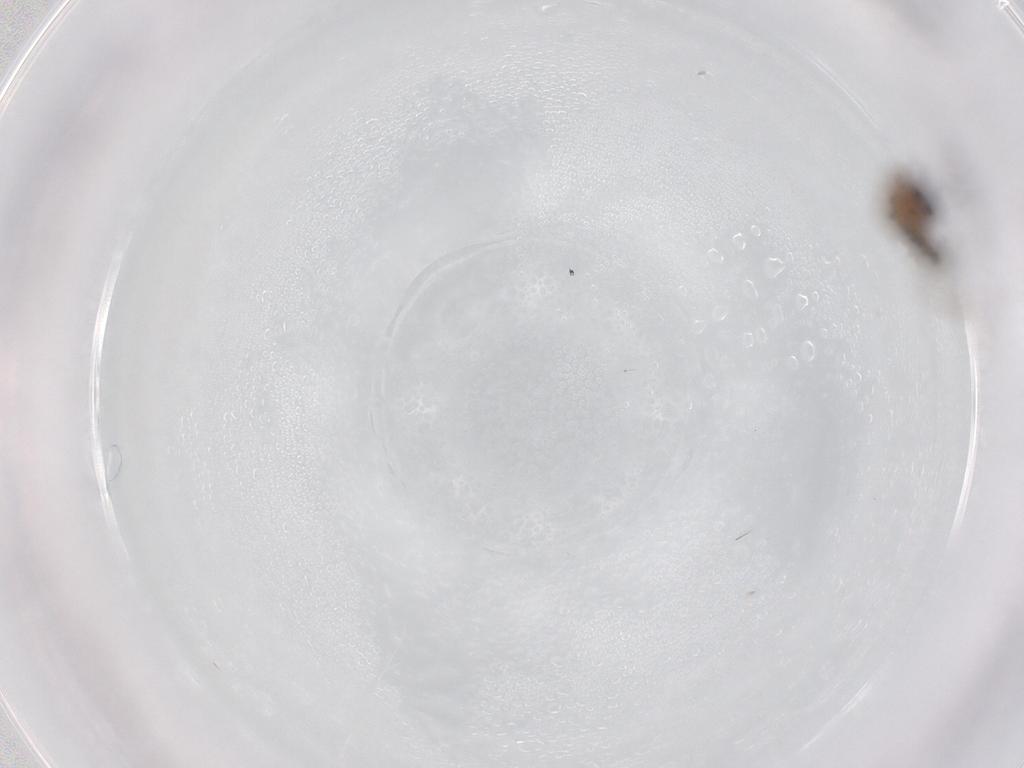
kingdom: Animalia
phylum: Arthropoda
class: Insecta
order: Diptera
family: Ceratopogonidae
